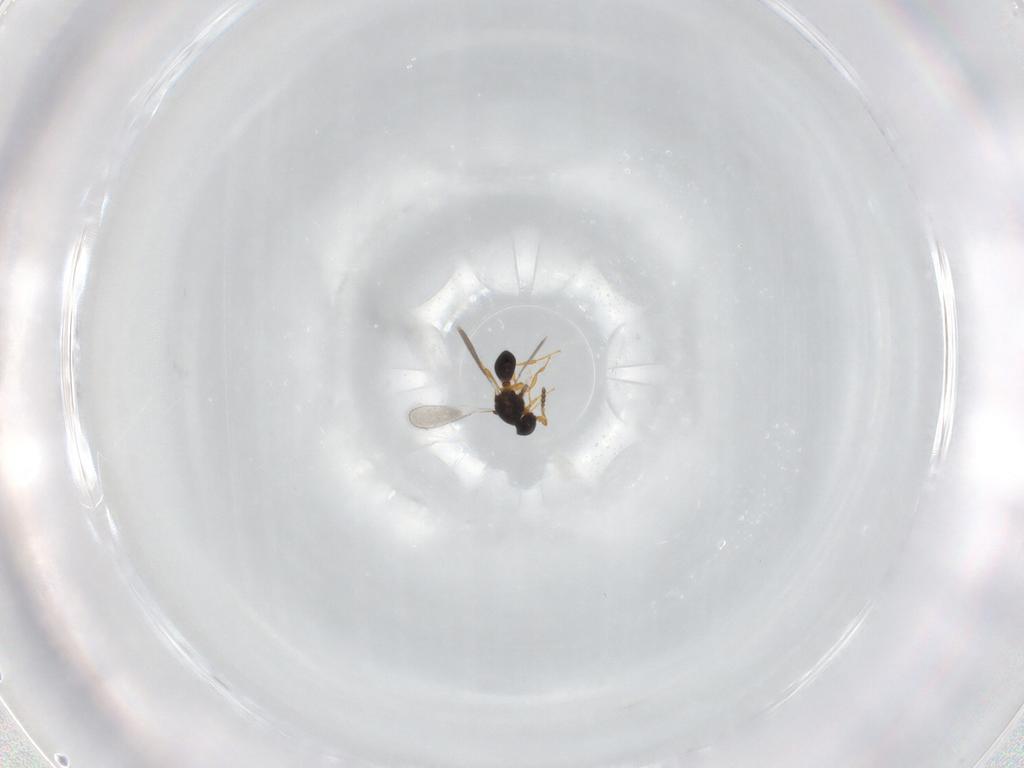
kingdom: Animalia
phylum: Arthropoda
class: Insecta
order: Hymenoptera
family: Platygastridae
